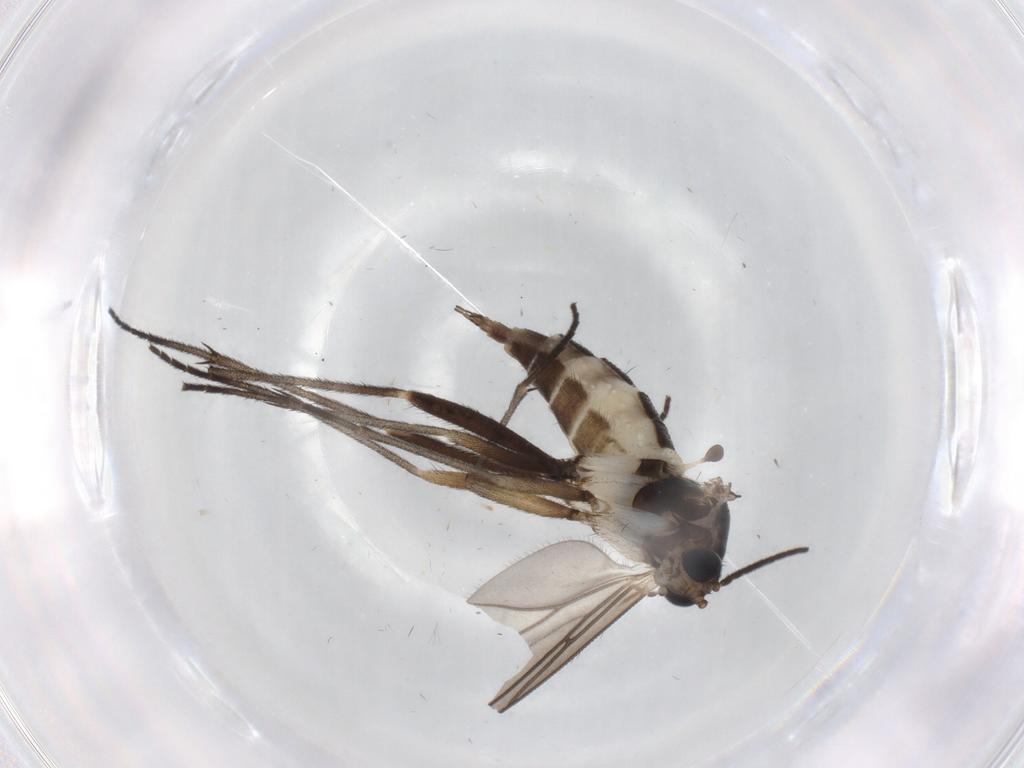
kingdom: Animalia
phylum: Arthropoda
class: Insecta
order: Diptera
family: Sciaridae
